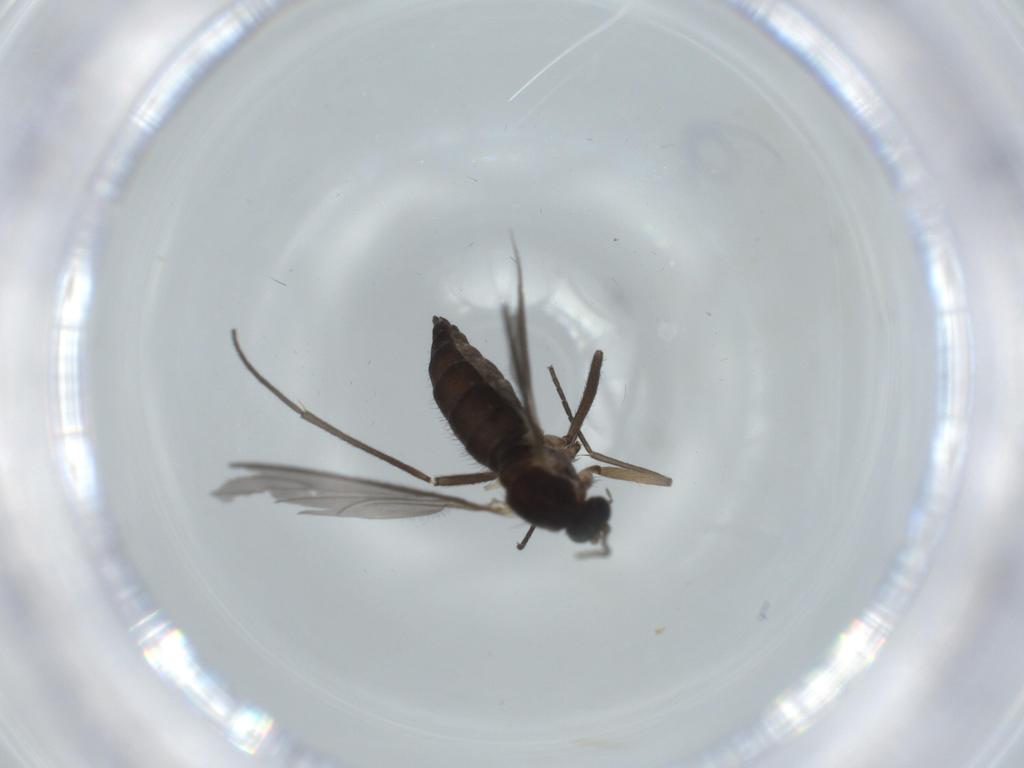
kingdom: Animalia
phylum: Arthropoda
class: Insecta
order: Diptera
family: Sciaridae
